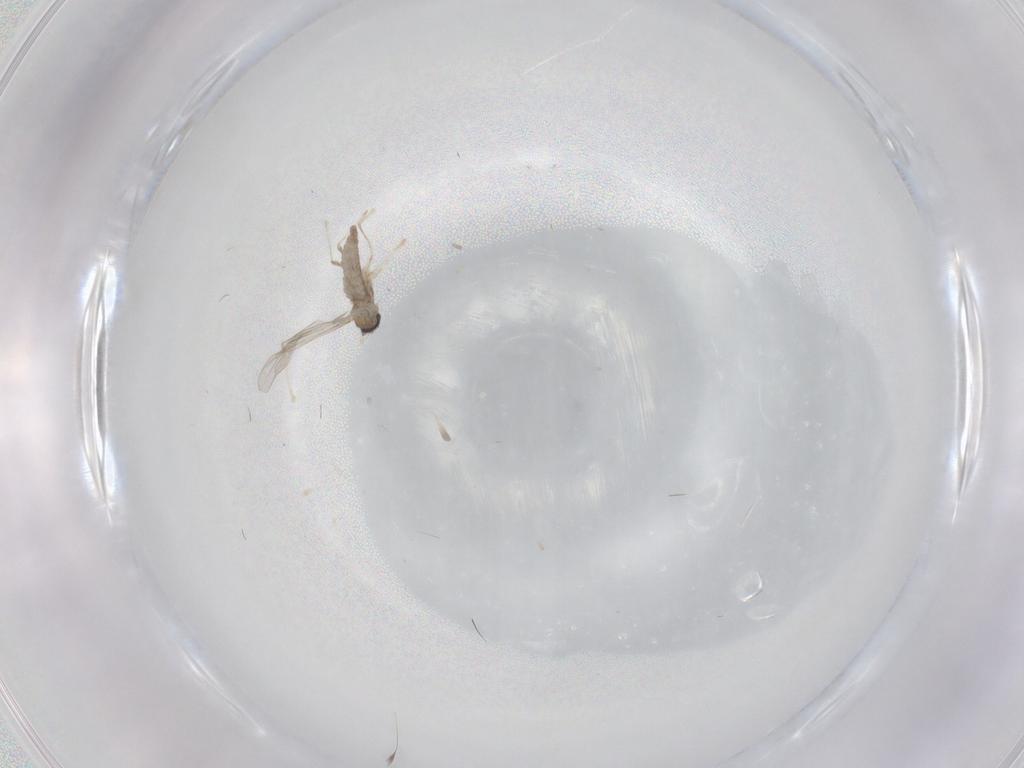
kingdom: Animalia
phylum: Arthropoda
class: Insecta
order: Diptera
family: Cecidomyiidae
